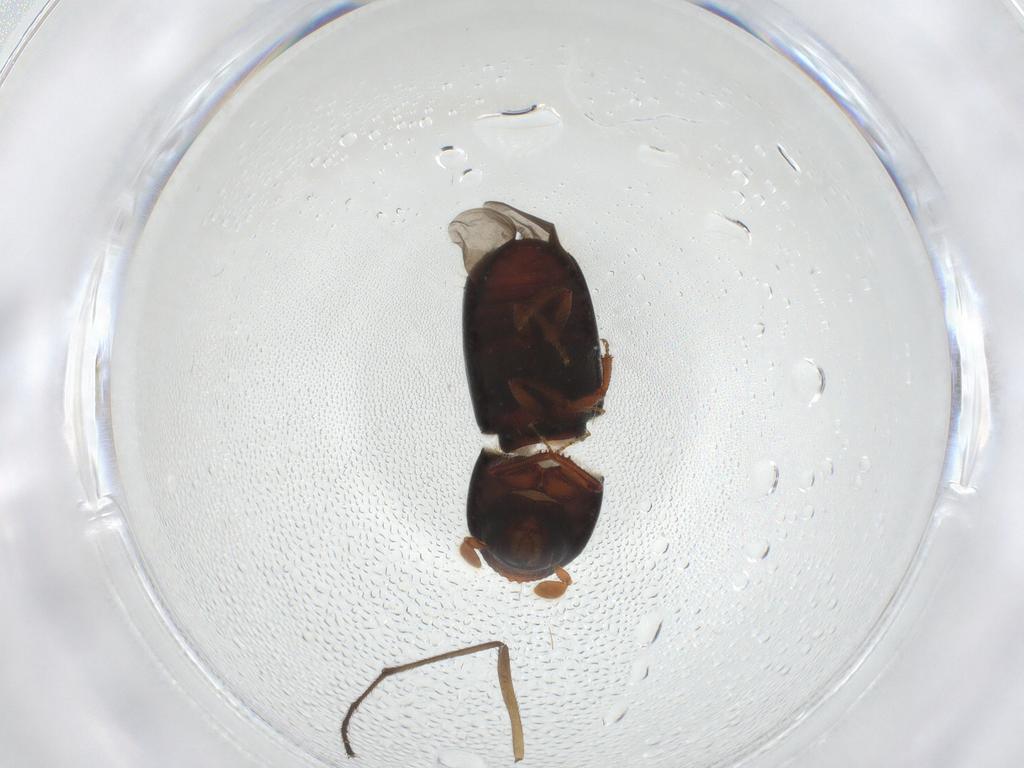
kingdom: Animalia
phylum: Arthropoda
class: Insecta
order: Coleoptera
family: Curculionidae
